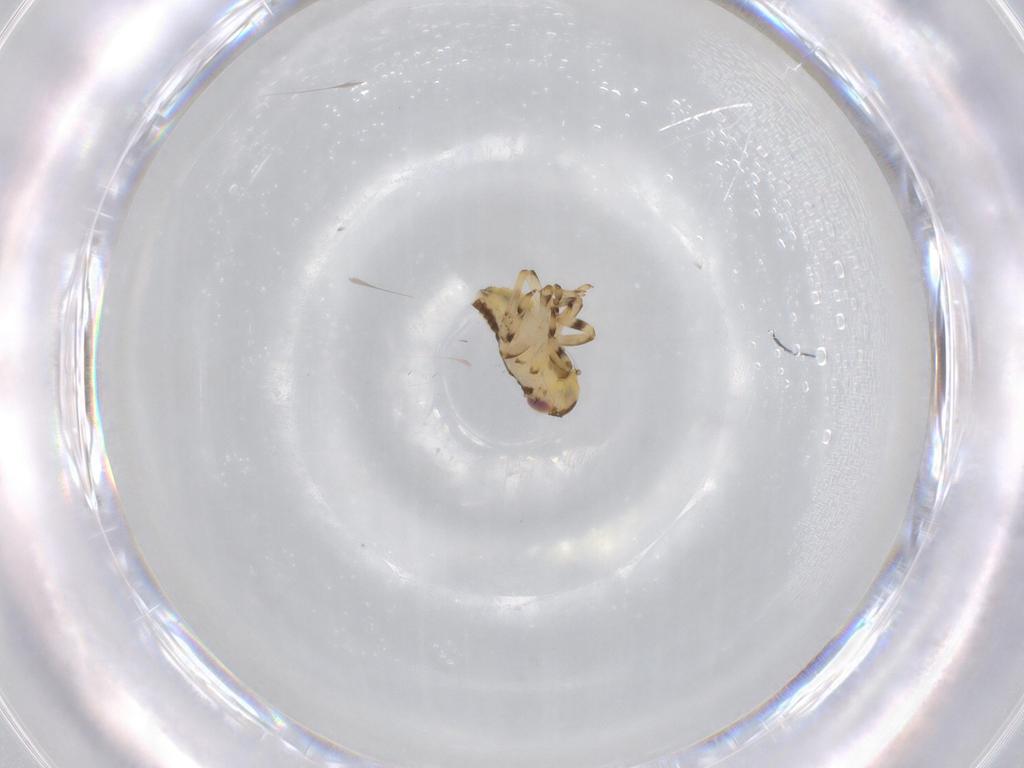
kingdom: Animalia
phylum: Arthropoda
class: Insecta
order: Hemiptera
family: Issidae
